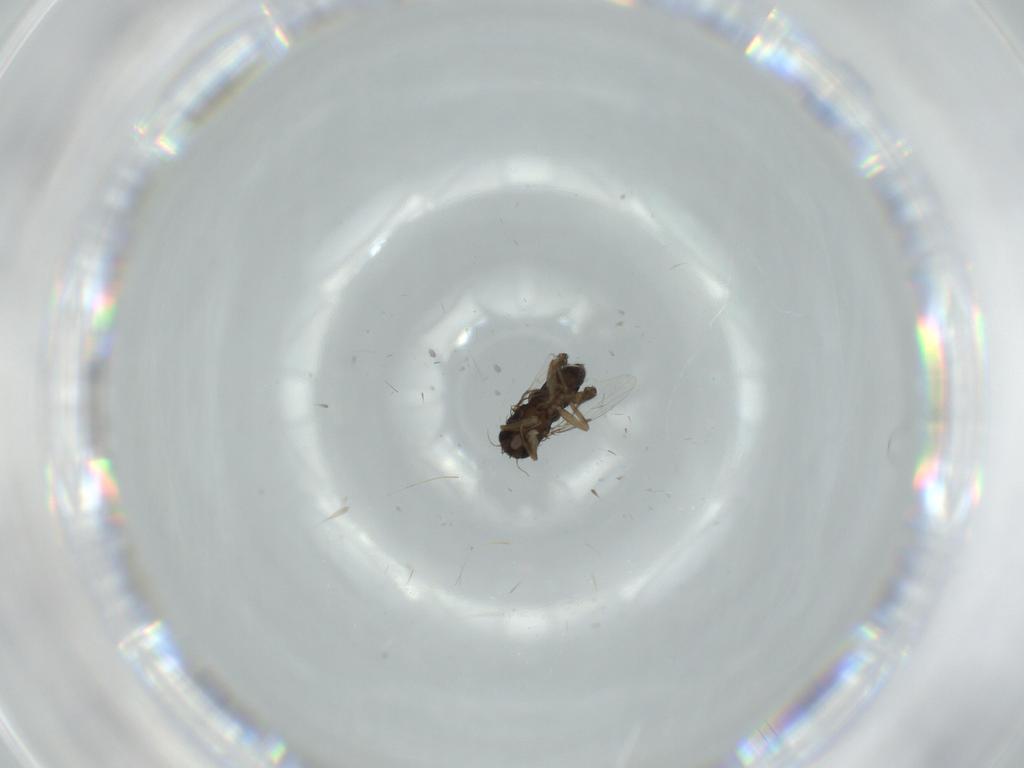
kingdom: Animalia
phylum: Arthropoda
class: Insecta
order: Diptera
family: Phoridae
